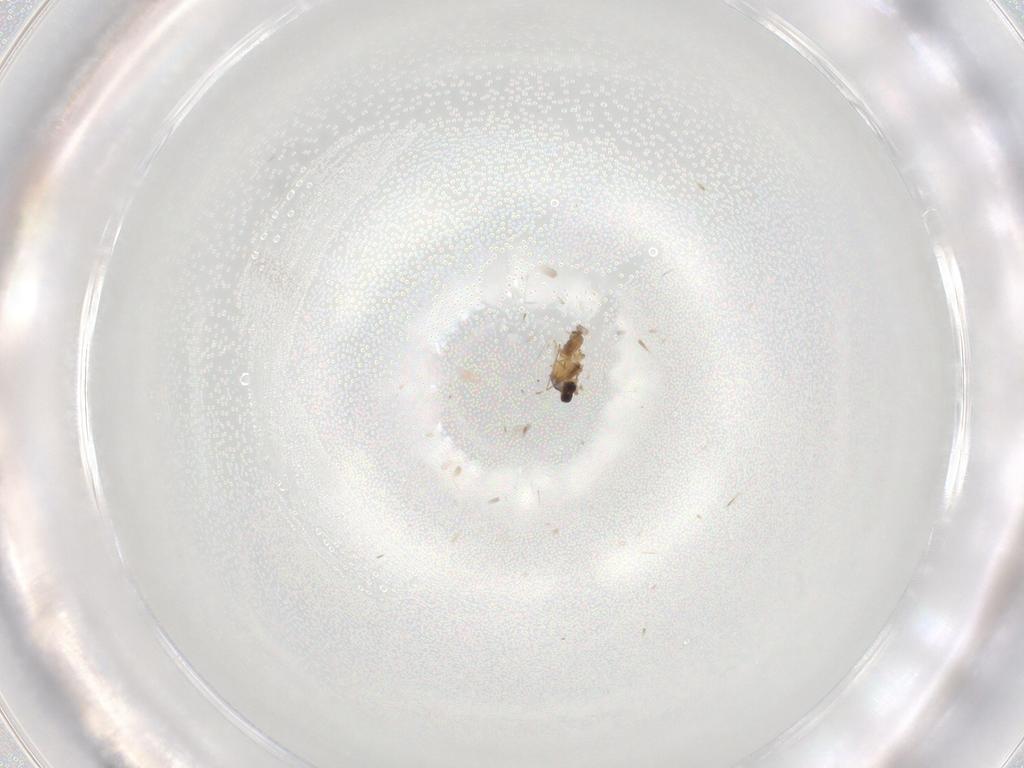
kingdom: Animalia
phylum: Arthropoda
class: Insecta
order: Diptera
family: Cecidomyiidae
